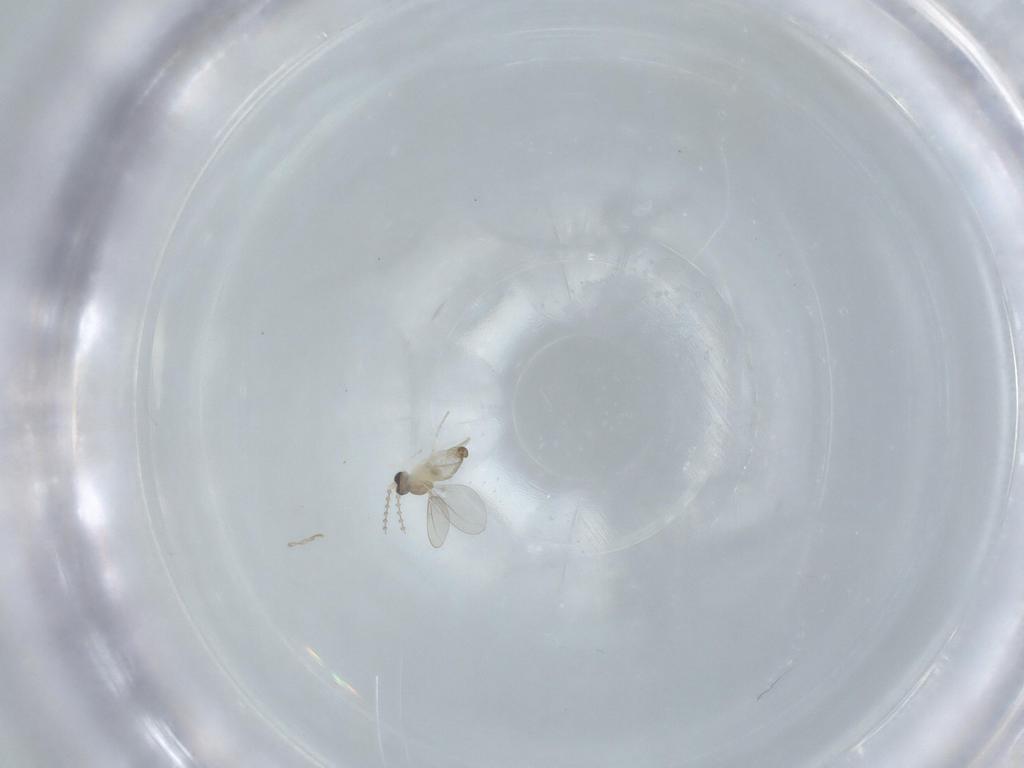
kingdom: Animalia
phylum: Arthropoda
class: Insecta
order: Diptera
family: Cecidomyiidae
